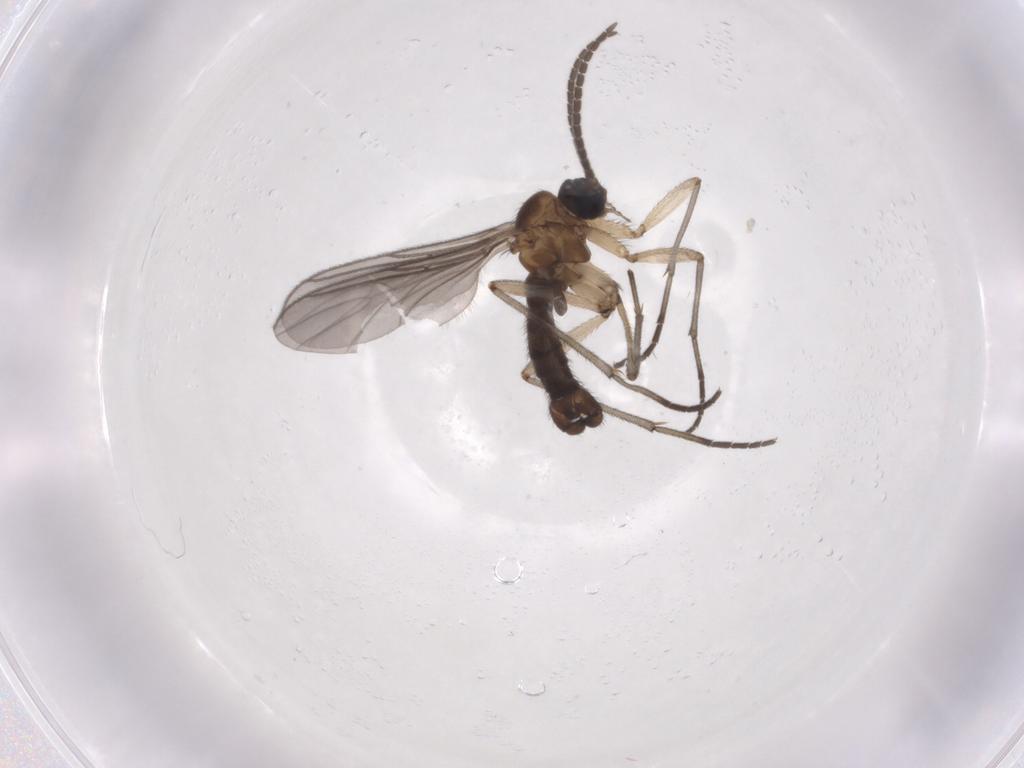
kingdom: Animalia
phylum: Arthropoda
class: Insecta
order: Diptera
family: Sciaridae
